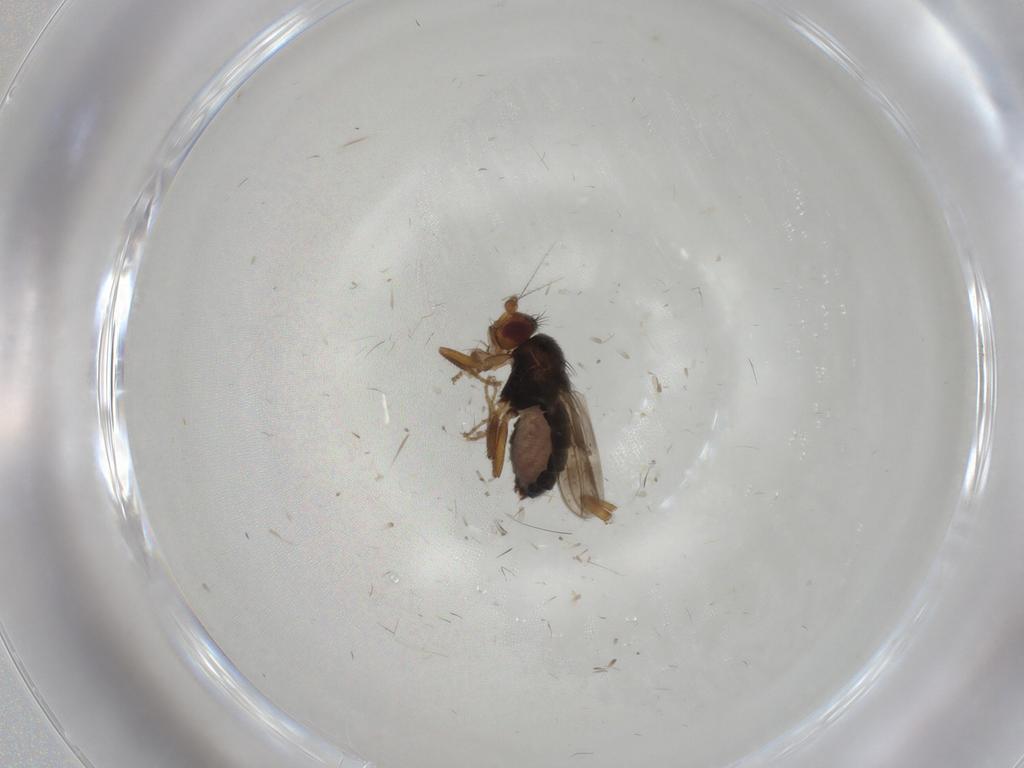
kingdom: Animalia
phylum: Arthropoda
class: Insecta
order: Diptera
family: Sphaeroceridae
